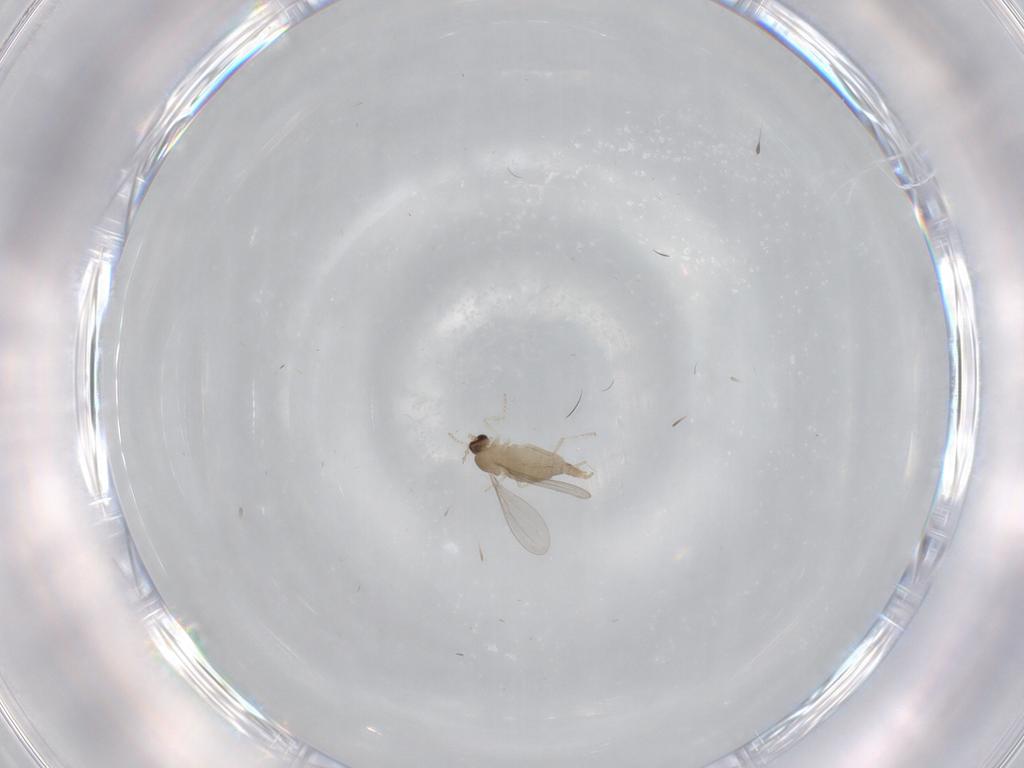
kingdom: Animalia
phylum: Arthropoda
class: Insecta
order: Diptera
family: Cecidomyiidae
